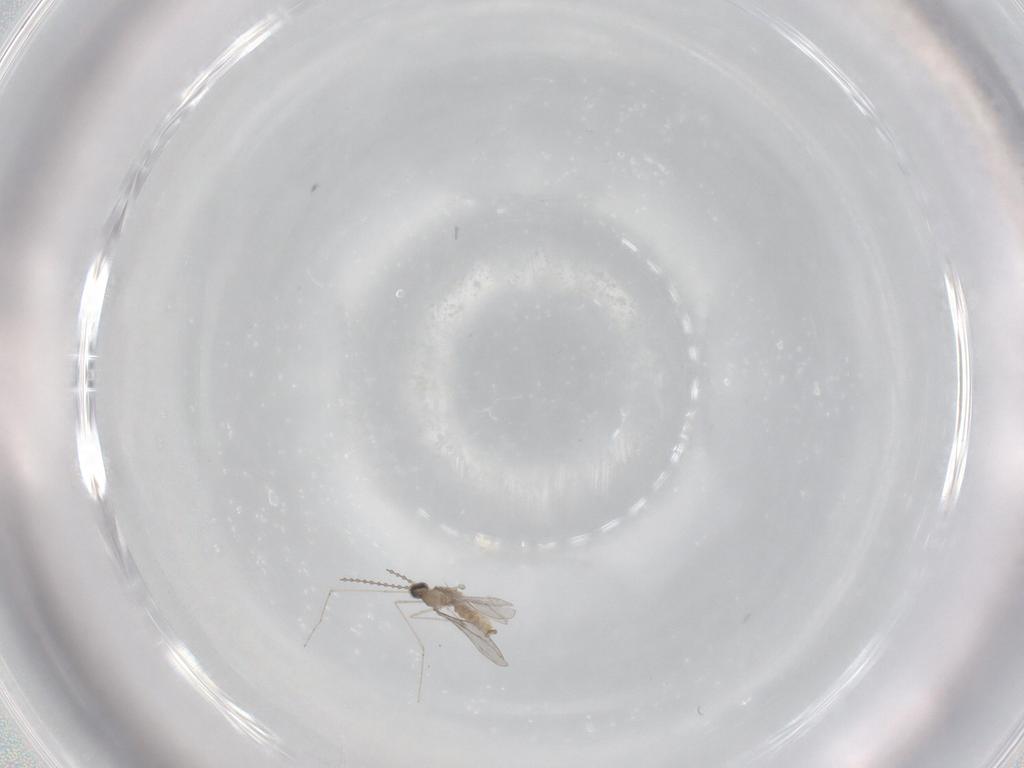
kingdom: Animalia
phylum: Arthropoda
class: Insecta
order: Diptera
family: Cecidomyiidae
